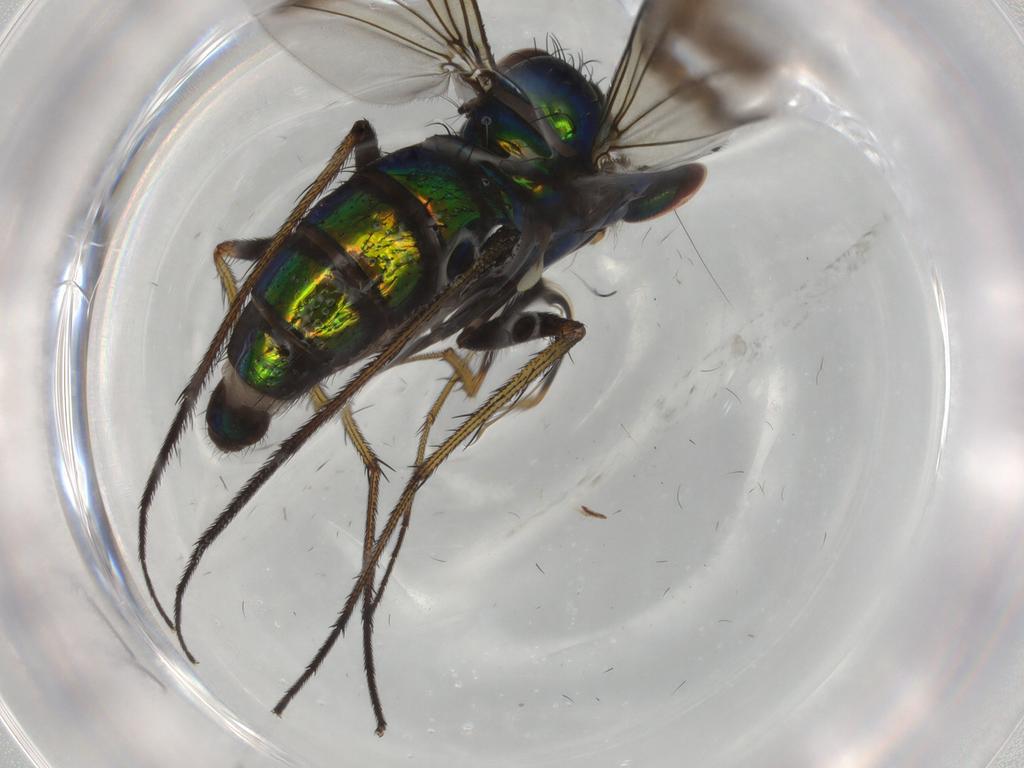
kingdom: Animalia
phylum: Arthropoda
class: Insecta
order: Diptera
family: Dolichopodidae
